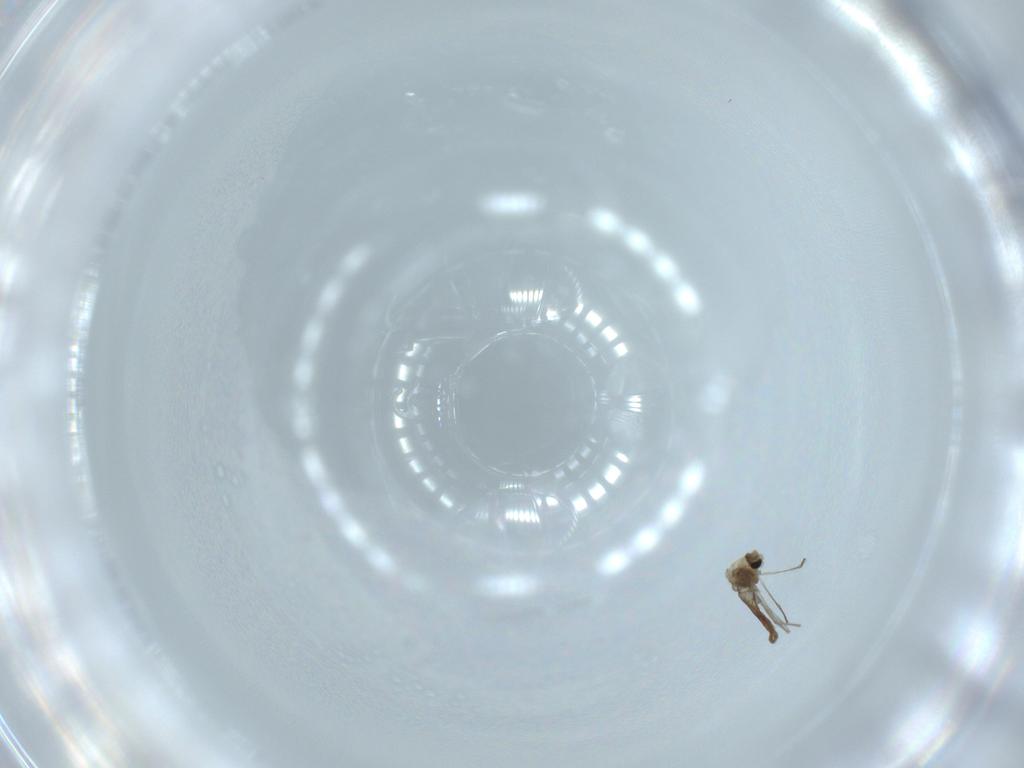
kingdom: Animalia
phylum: Arthropoda
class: Insecta
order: Diptera
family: Chironomidae
